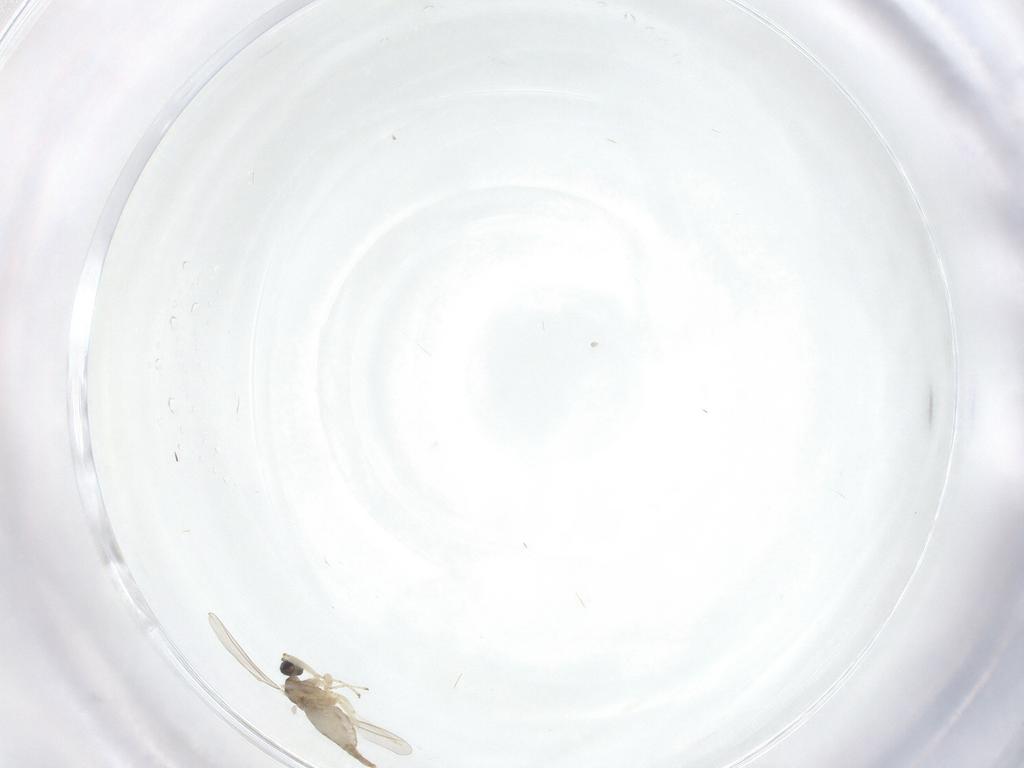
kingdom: Animalia
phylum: Arthropoda
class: Insecta
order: Diptera
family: Cecidomyiidae
